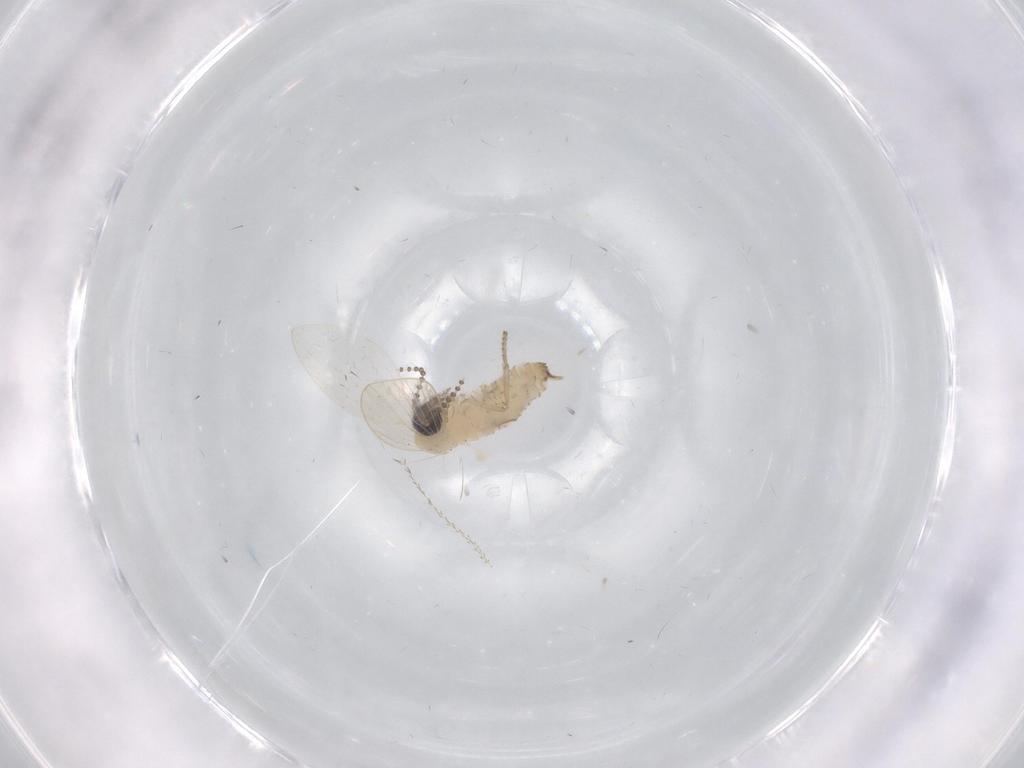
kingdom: Animalia
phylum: Arthropoda
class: Insecta
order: Diptera
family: Psychodidae
